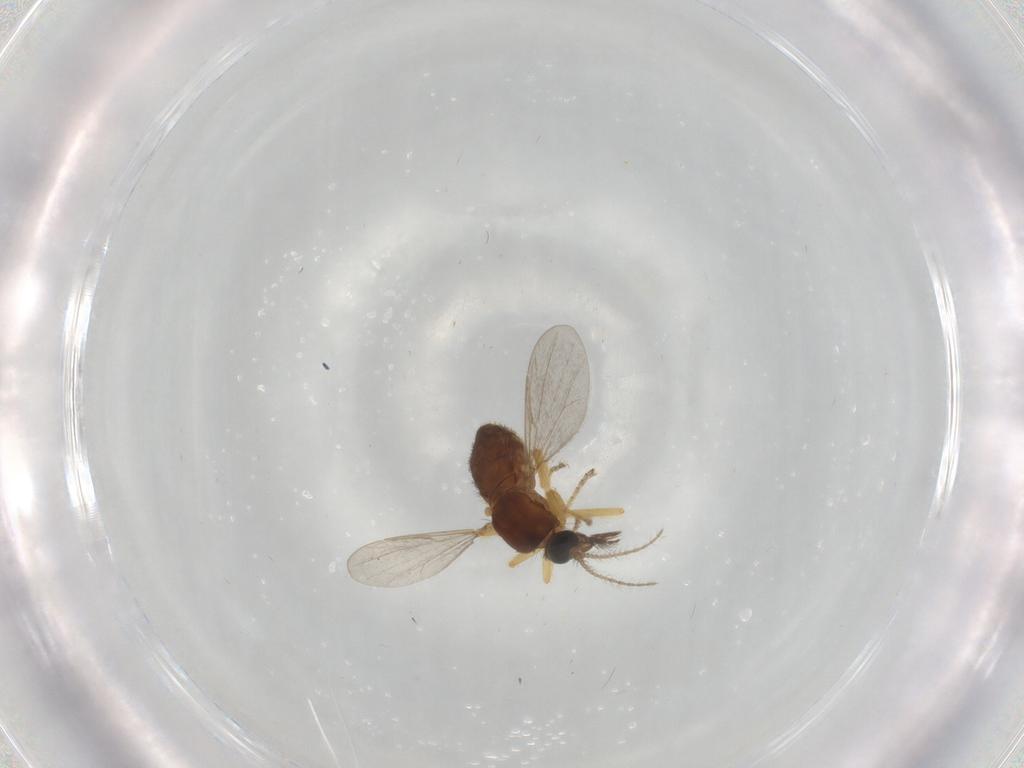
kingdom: Animalia
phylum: Arthropoda
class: Insecta
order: Diptera
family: Ceratopogonidae
